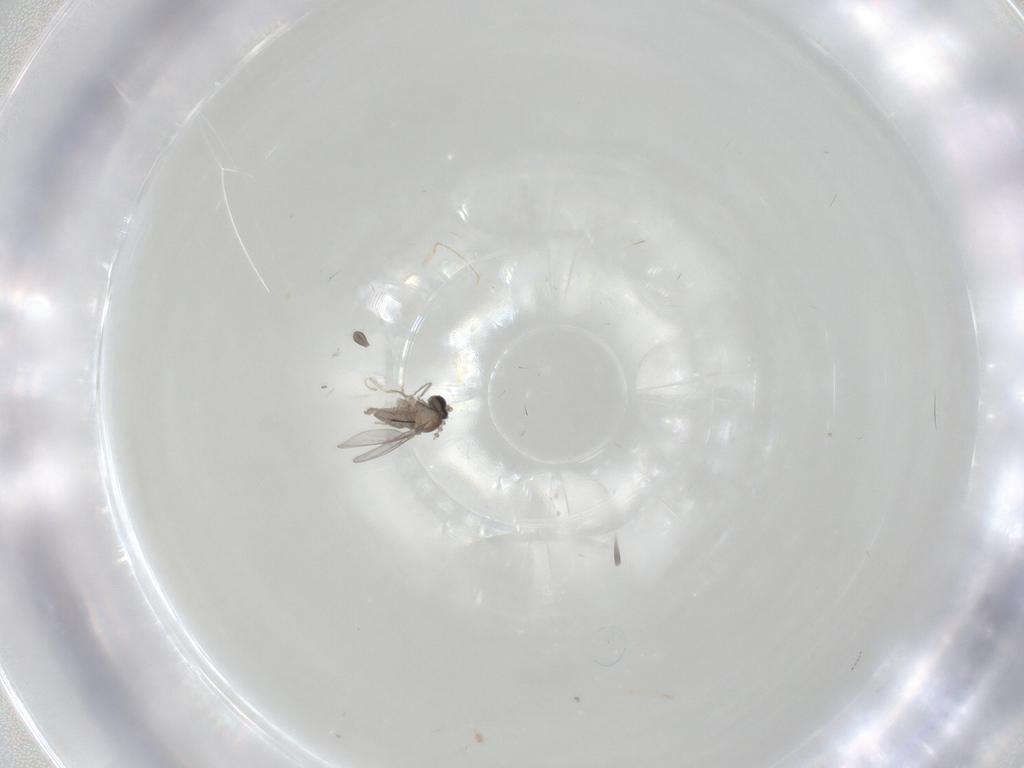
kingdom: Animalia
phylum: Arthropoda
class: Insecta
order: Diptera
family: Cecidomyiidae
